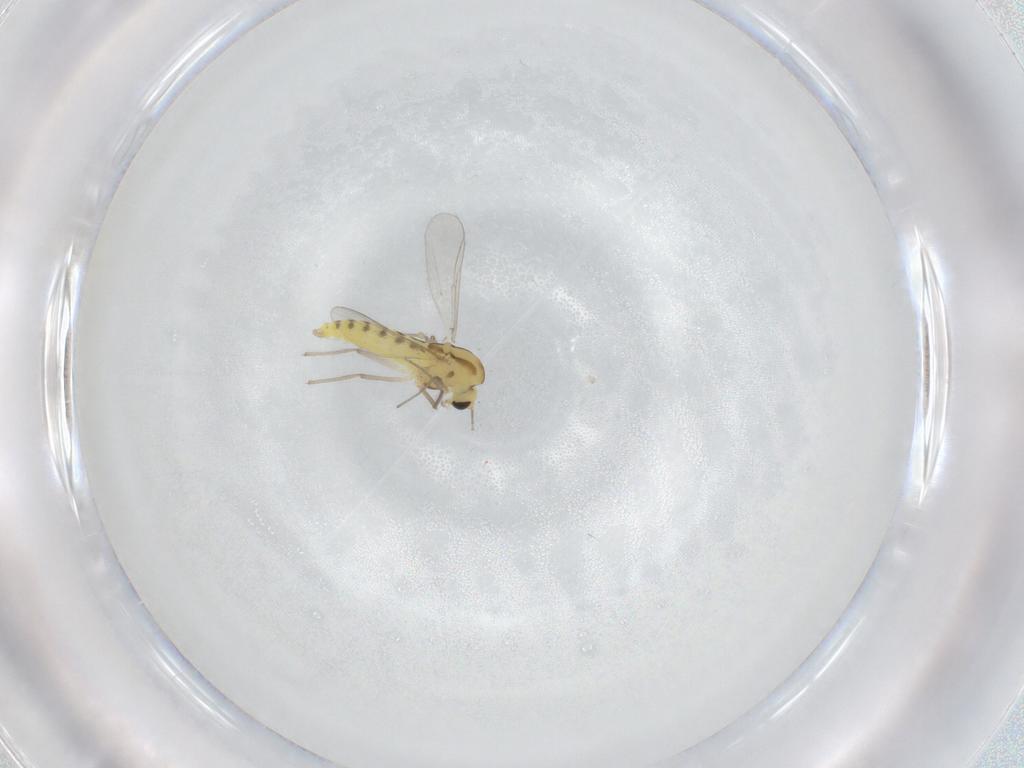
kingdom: Animalia
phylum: Arthropoda
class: Insecta
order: Diptera
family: Chironomidae
